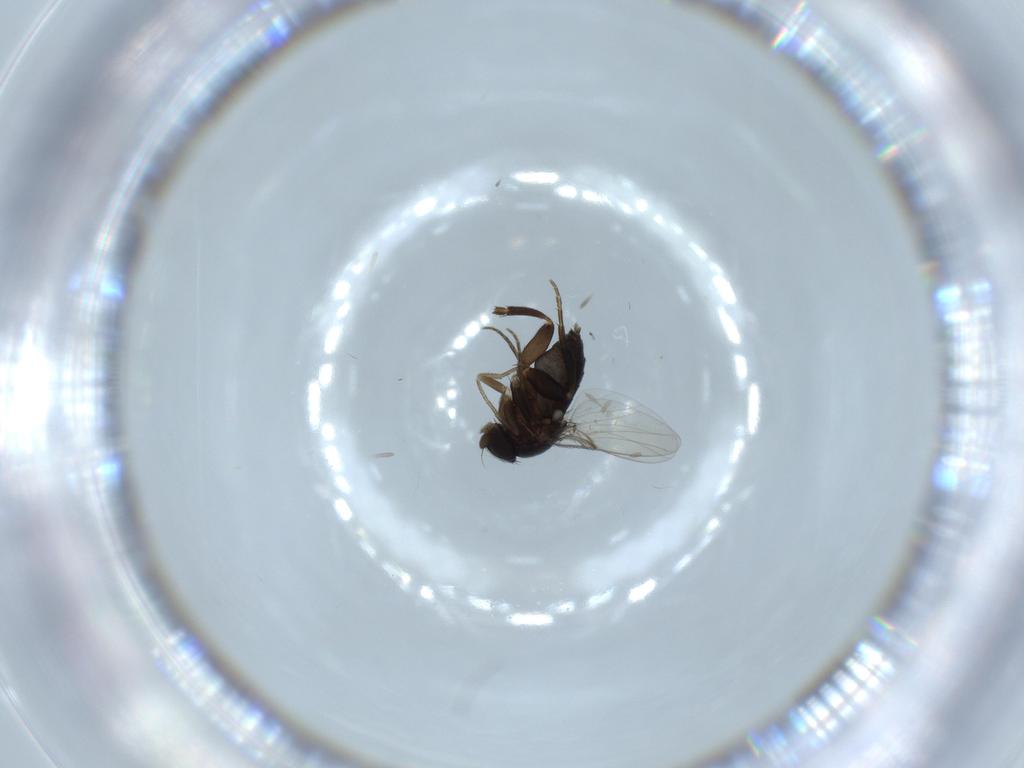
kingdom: Animalia
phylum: Arthropoda
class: Insecta
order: Diptera
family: Phoridae
